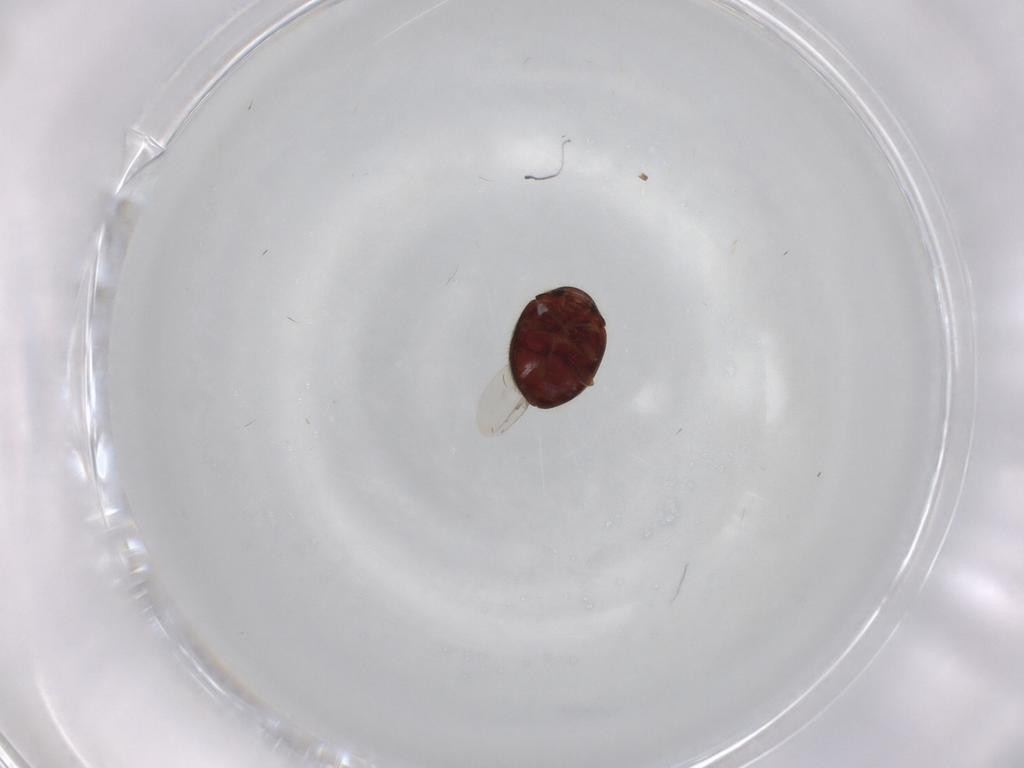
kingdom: Animalia
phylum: Arthropoda
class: Insecta
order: Coleoptera
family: Coccinellidae
